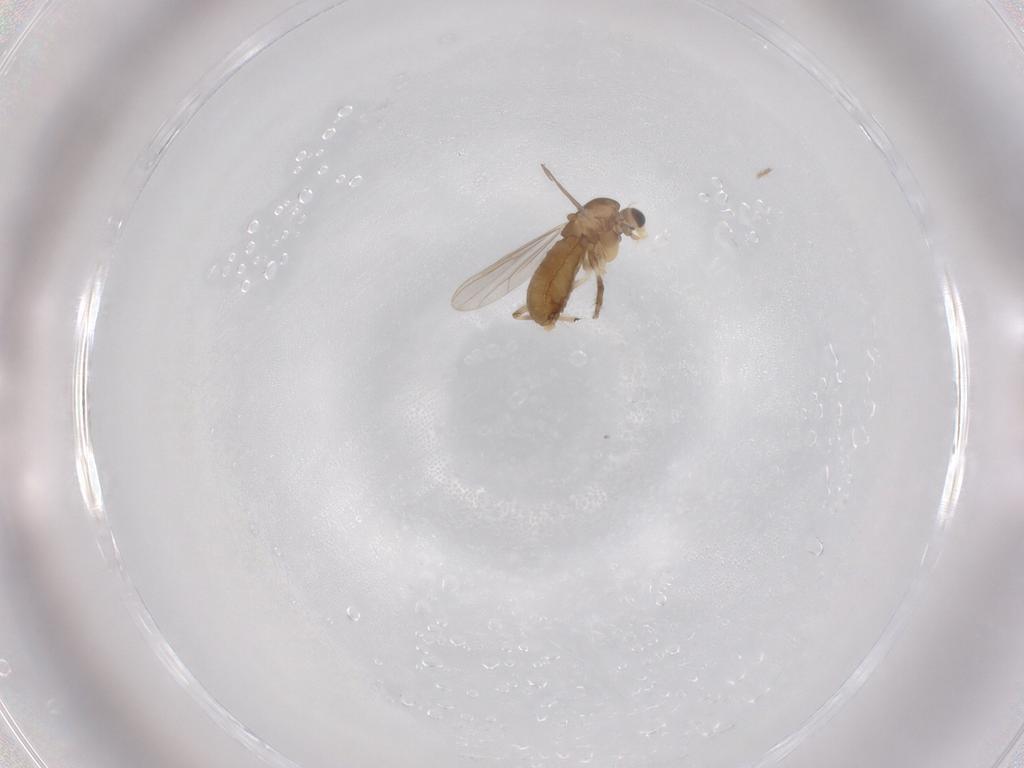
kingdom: Animalia
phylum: Arthropoda
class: Insecta
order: Diptera
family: Chironomidae
